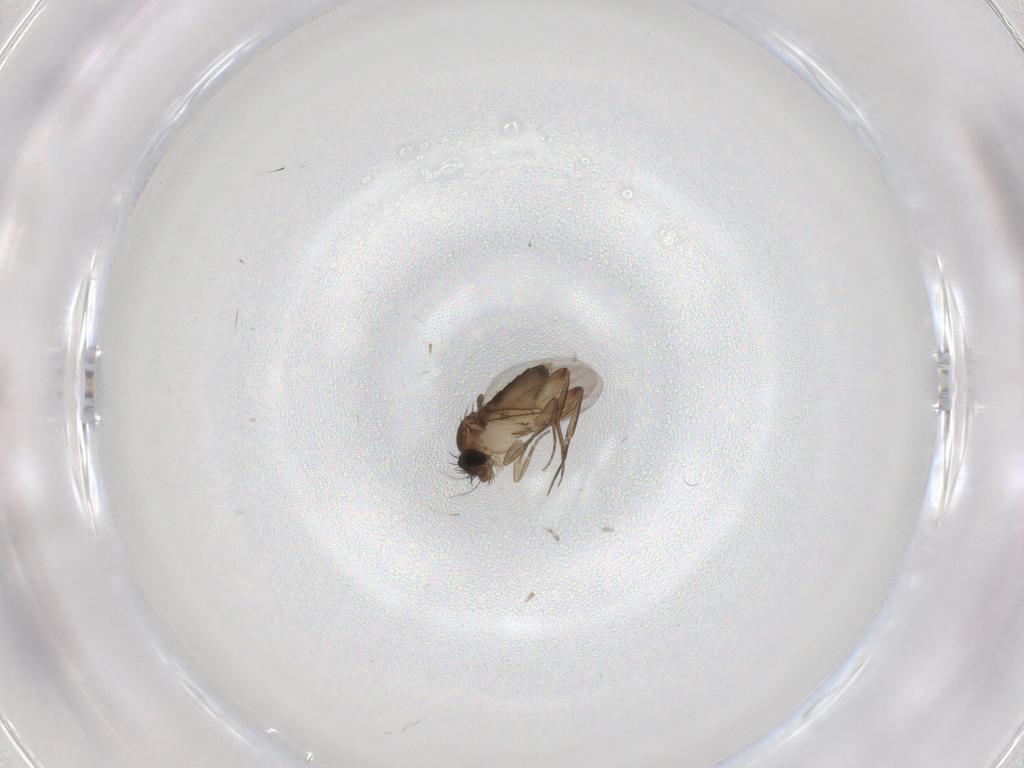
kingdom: Animalia
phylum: Arthropoda
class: Insecta
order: Diptera
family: Phoridae
